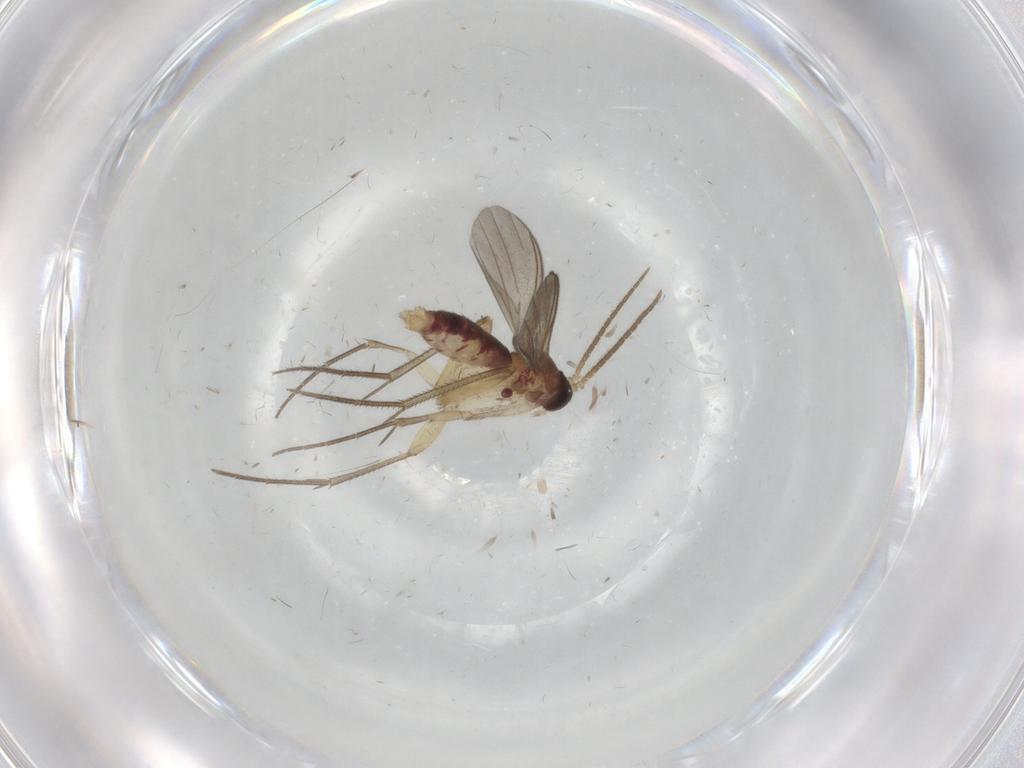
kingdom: Animalia
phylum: Arthropoda
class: Insecta
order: Diptera
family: Mycetophilidae
